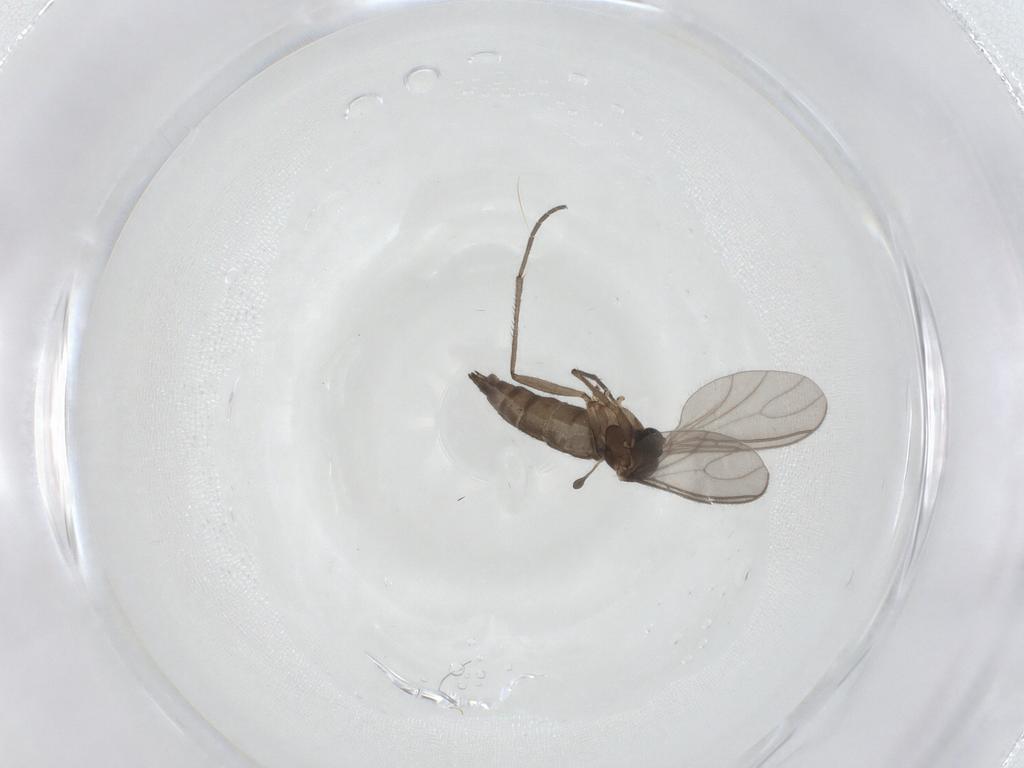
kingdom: Animalia
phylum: Arthropoda
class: Insecta
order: Diptera
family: Sciaridae
